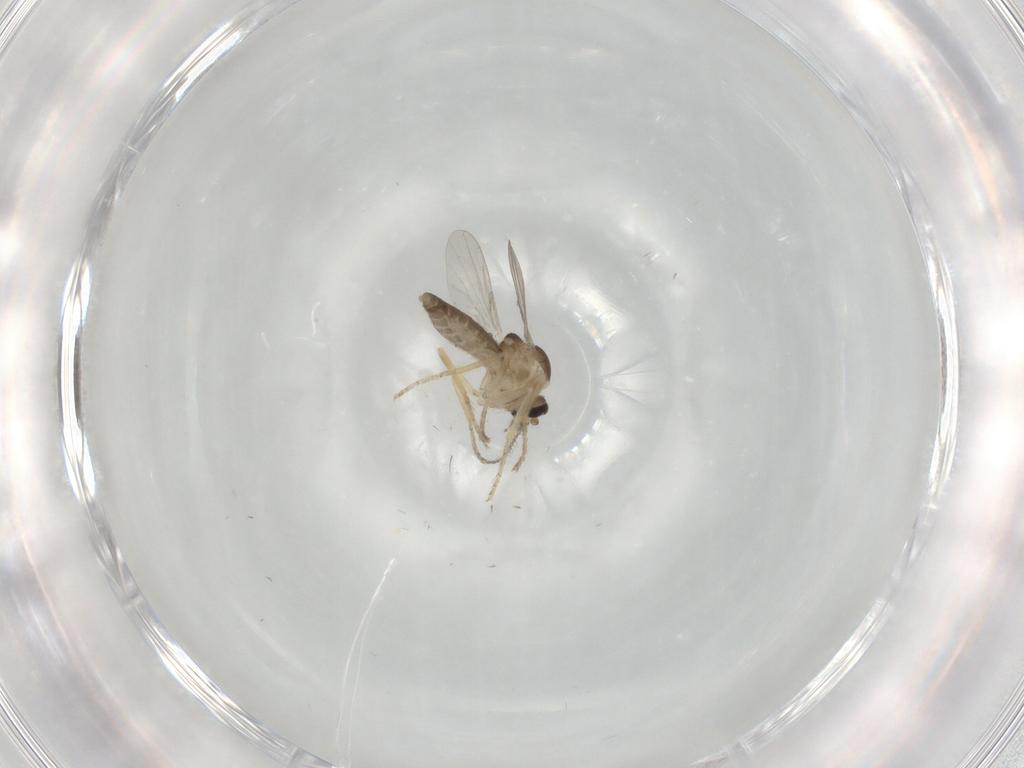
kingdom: Animalia
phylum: Arthropoda
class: Insecta
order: Diptera
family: Ceratopogonidae
